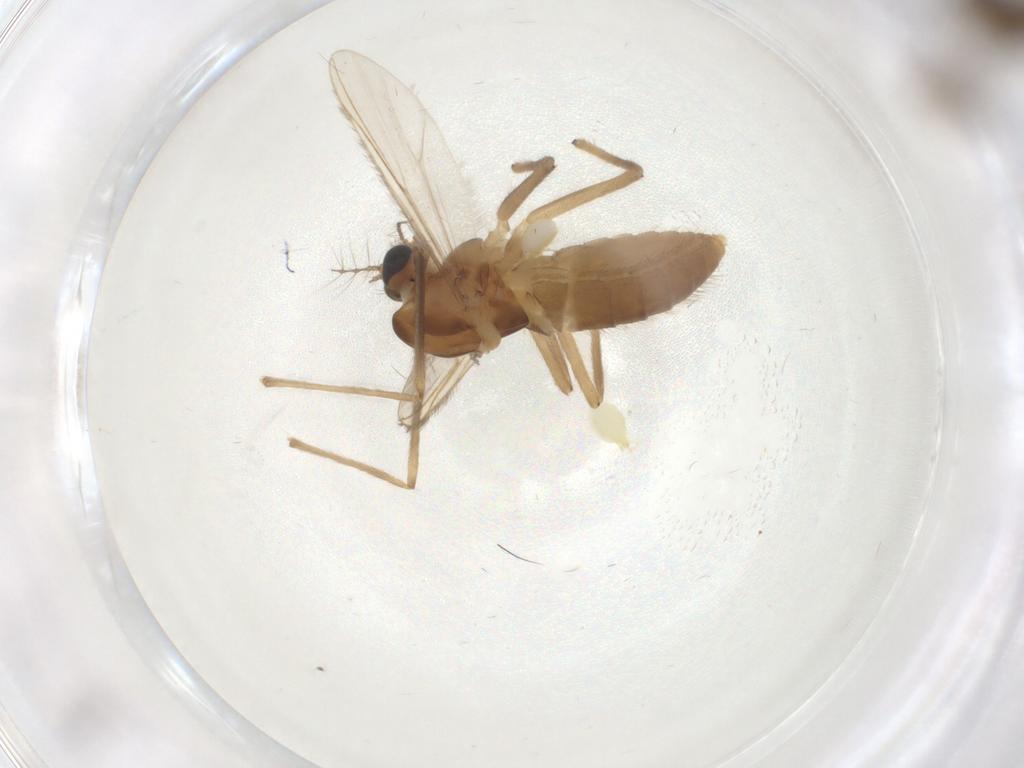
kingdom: Animalia
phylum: Arthropoda
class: Insecta
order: Diptera
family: Chironomidae
